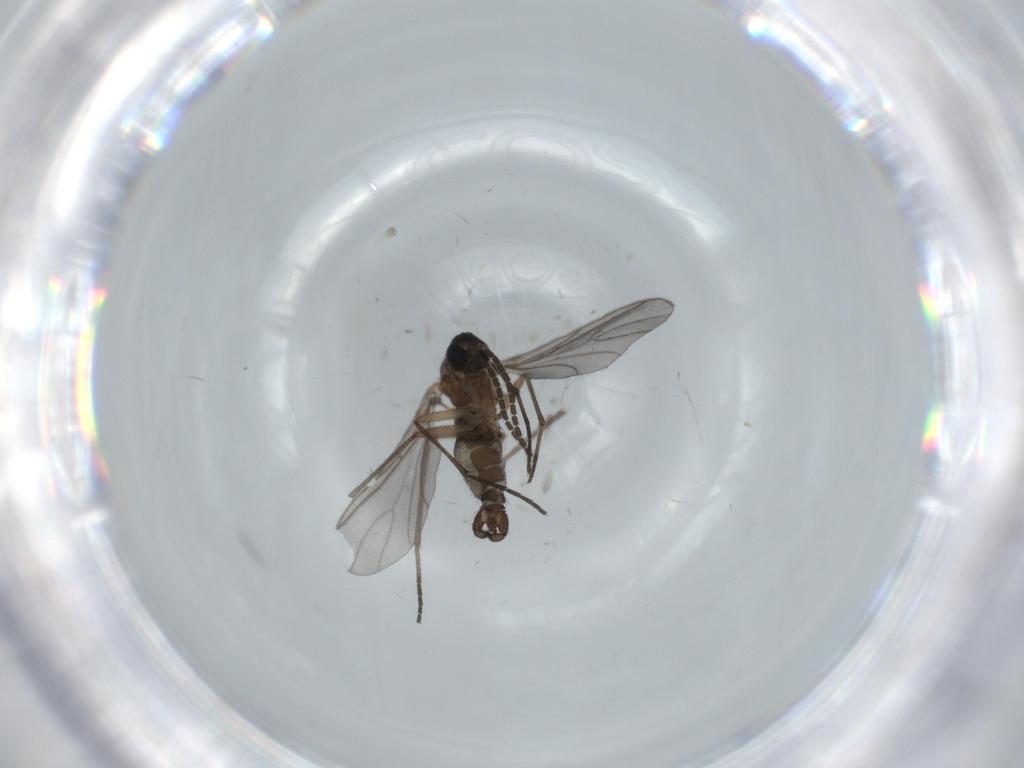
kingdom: Animalia
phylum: Arthropoda
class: Insecta
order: Diptera
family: Sciaridae
